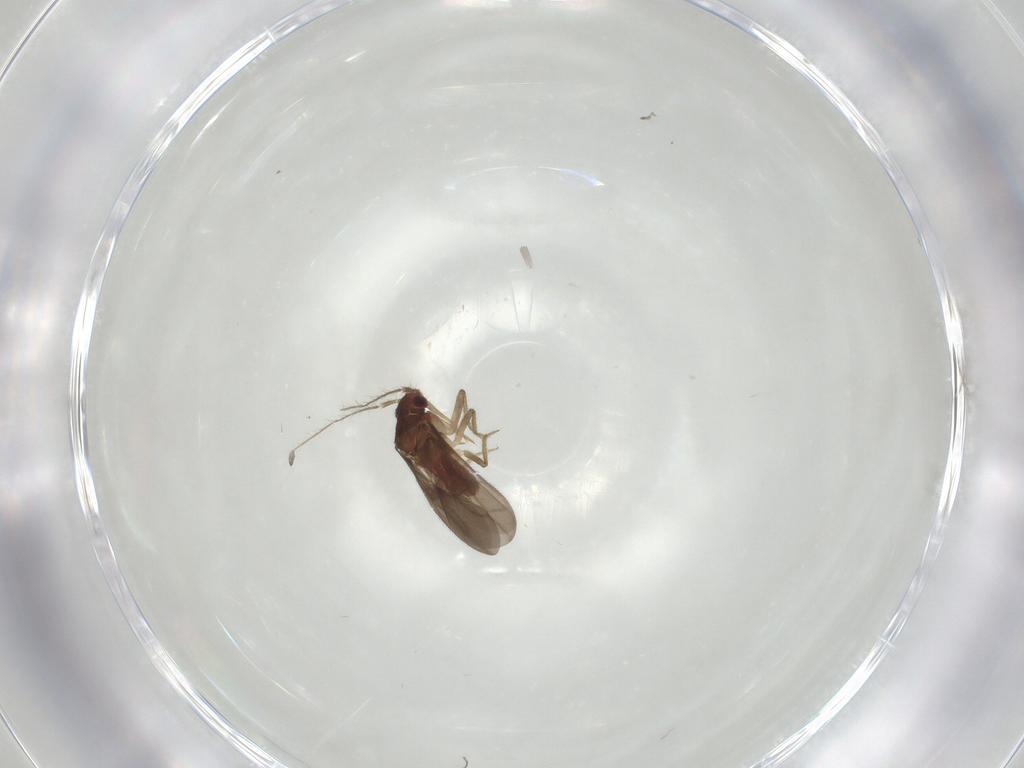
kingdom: Animalia
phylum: Arthropoda
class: Insecta
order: Hemiptera
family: Ceratocombidae
